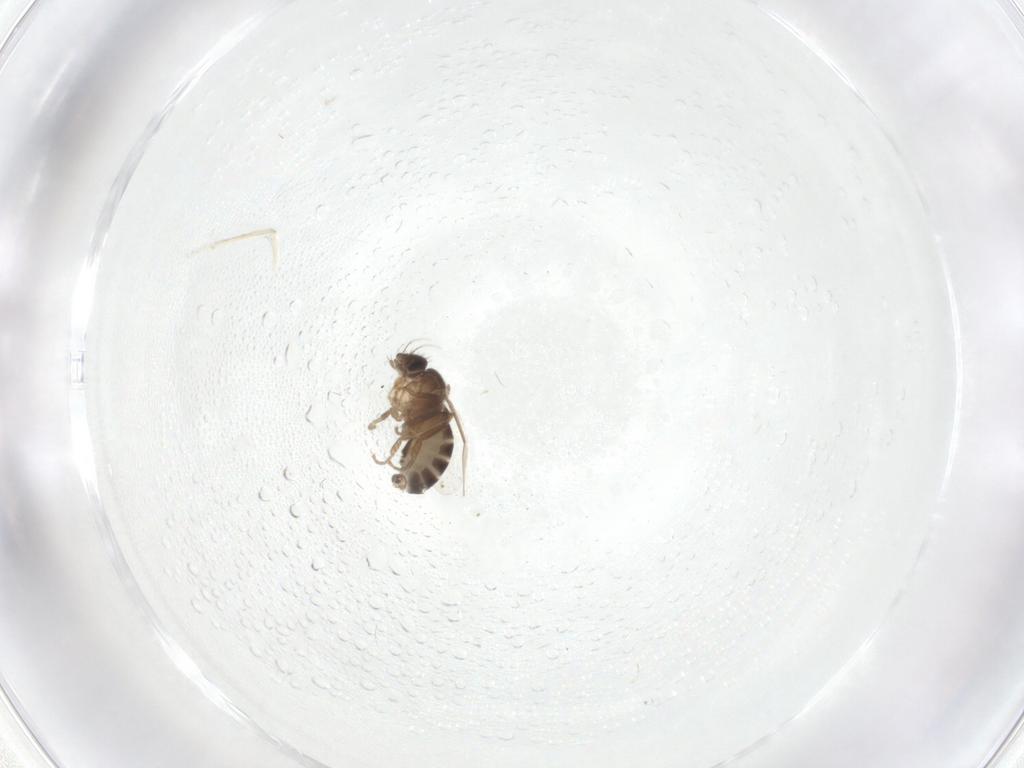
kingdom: Animalia
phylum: Arthropoda
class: Insecta
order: Diptera
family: Phoridae
